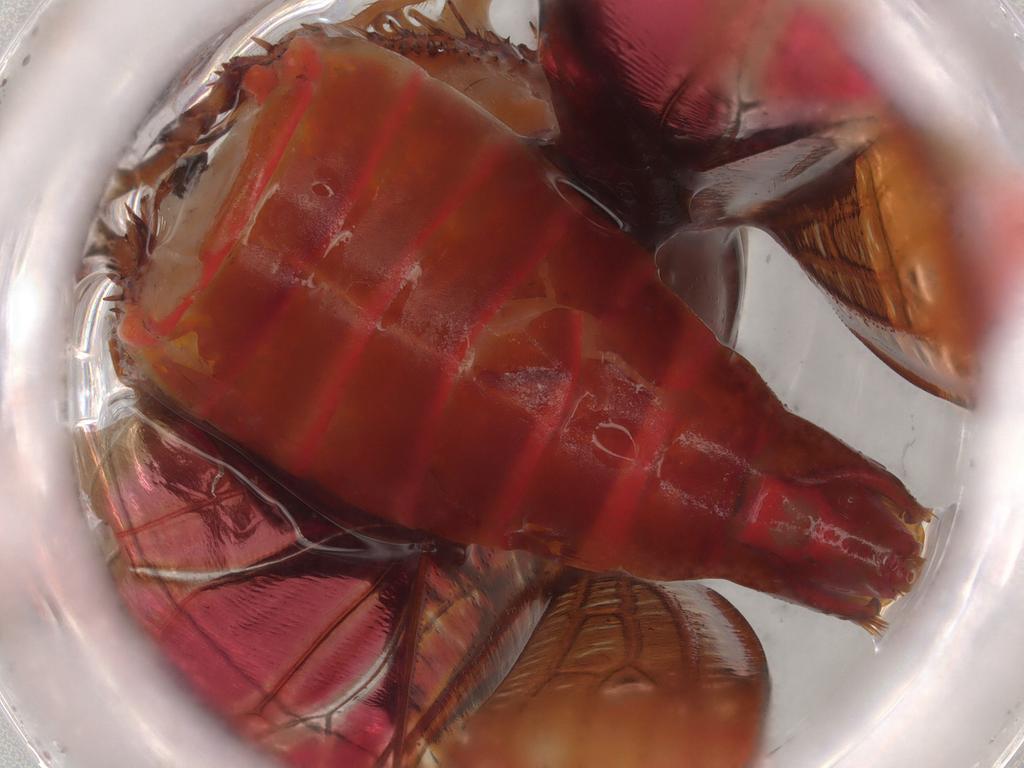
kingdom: Animalia
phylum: Arthropoda
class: Insecta
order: Hemiptera
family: Cicadellidae
